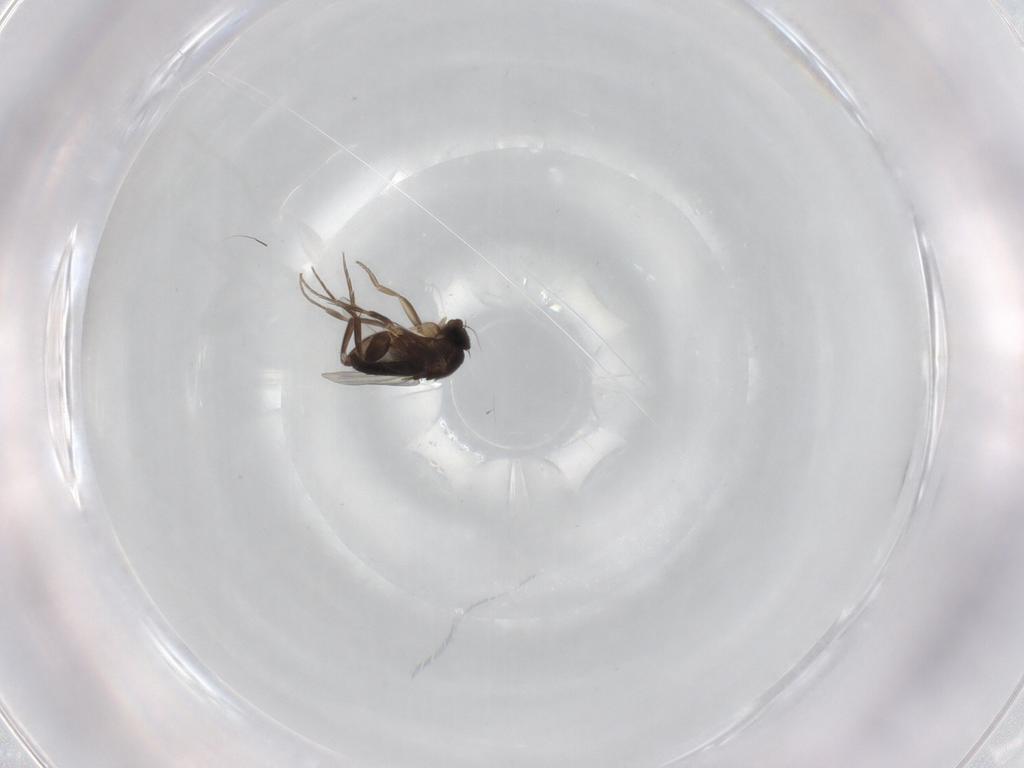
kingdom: Animalia
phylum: Arthropoda
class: Insecta
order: Diptera
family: Phoridae
